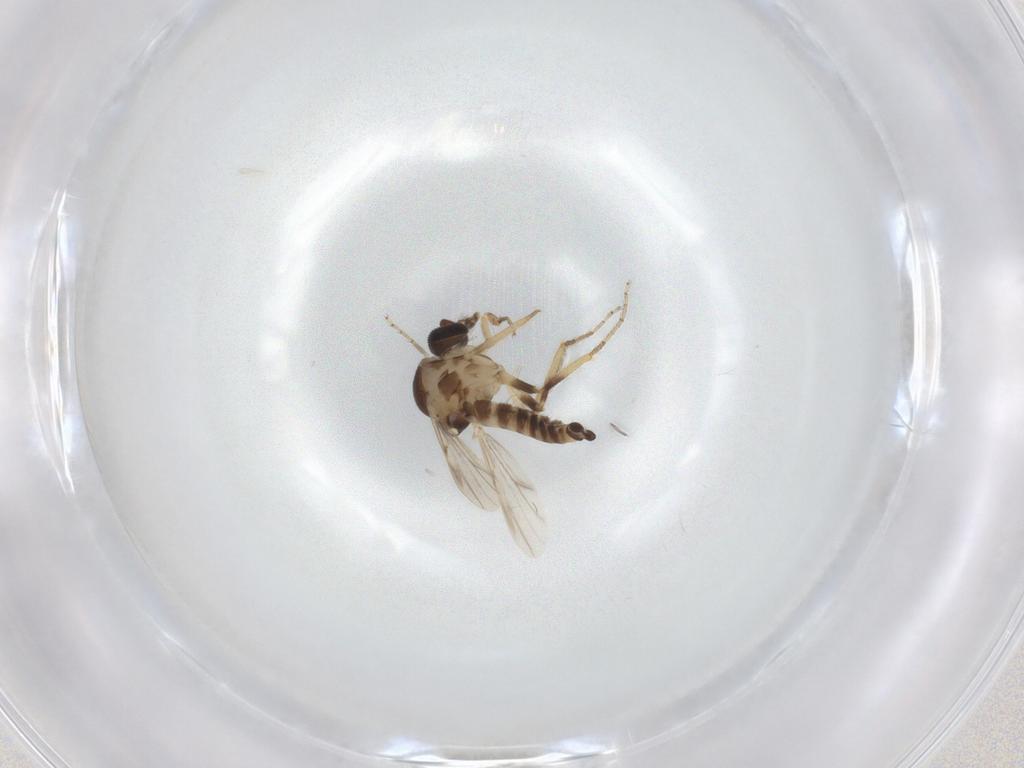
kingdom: Animalia
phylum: Arthropoda
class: Insecta
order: Diptera
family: Ceratopogonidae
